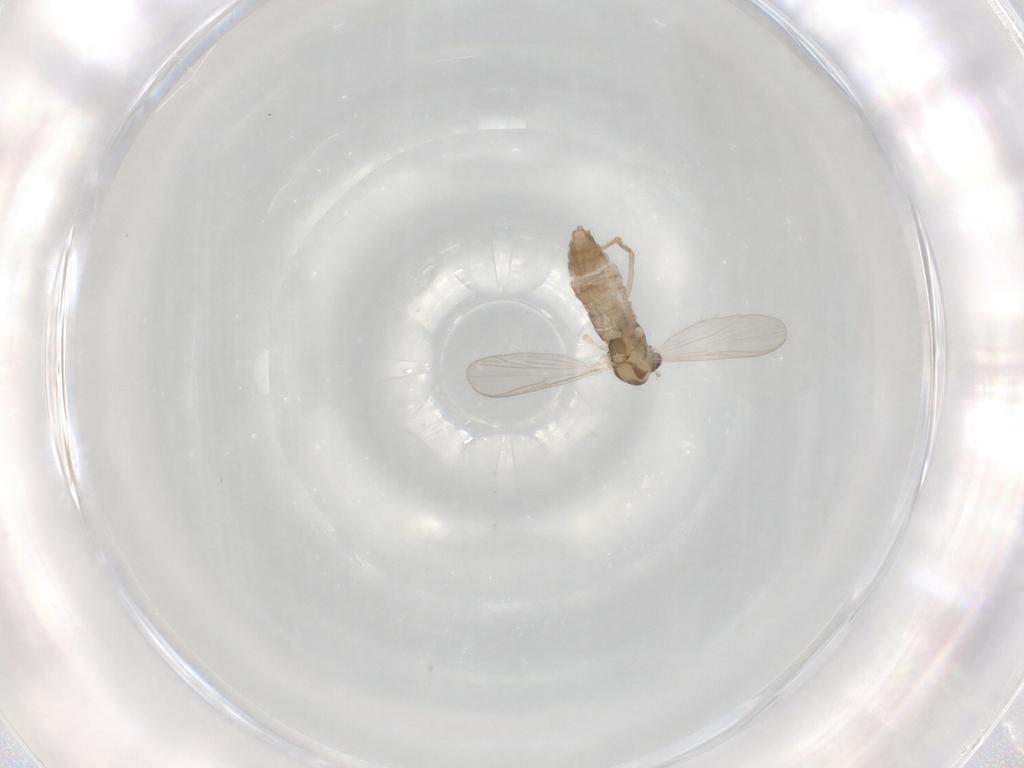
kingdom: Animalia
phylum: Arthropoda
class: Insecta
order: Diptera
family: Chironomidae
